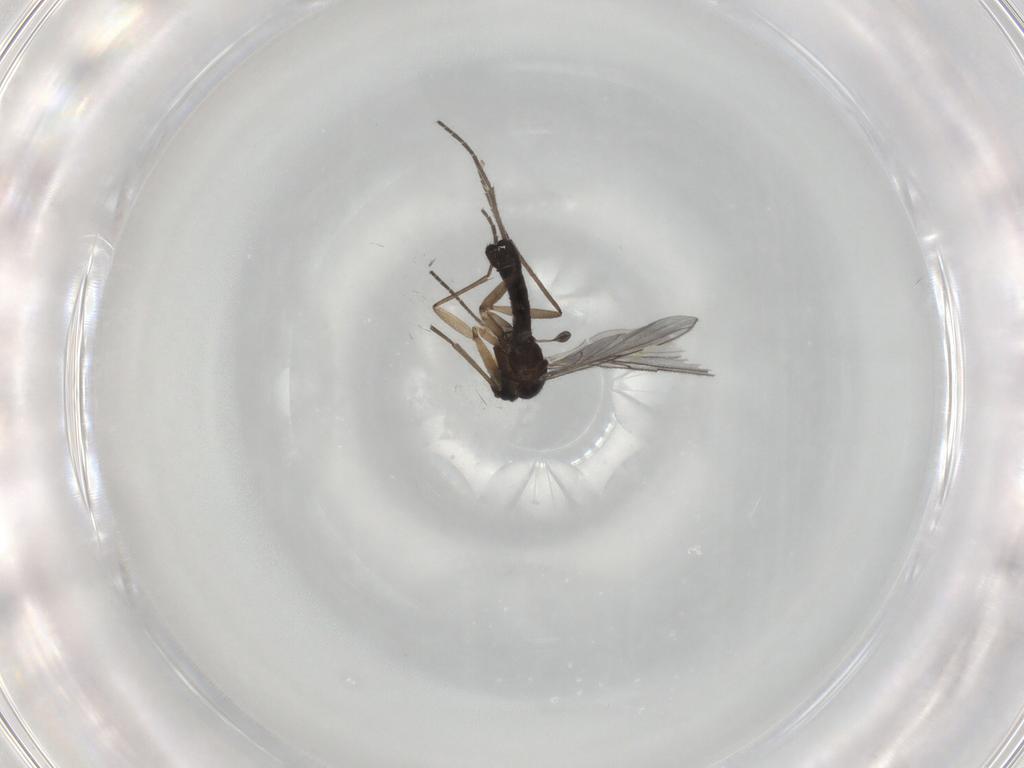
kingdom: Animalia
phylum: Arthropoda
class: Insecta
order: Diptera
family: Sciaridae
